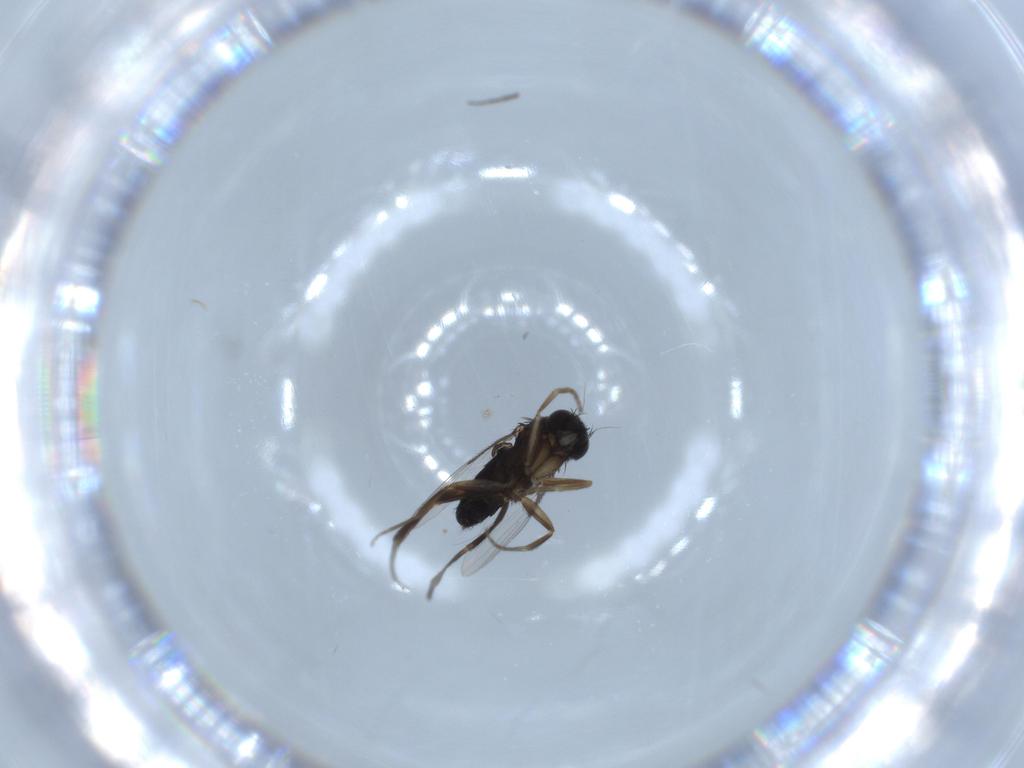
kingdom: Animalia
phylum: Arthropoda
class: Insecta
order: Diptera
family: Phoridae
